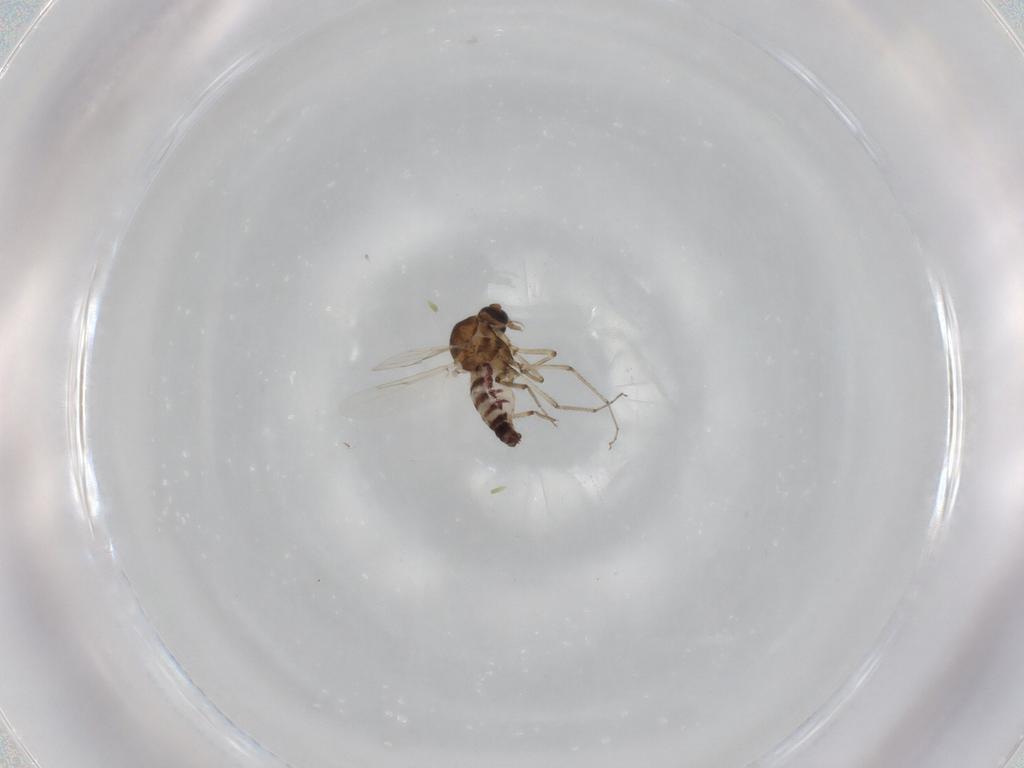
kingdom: Animalia
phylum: Arthropoda
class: Insecta
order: Diptera
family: Ceratopogonidae
